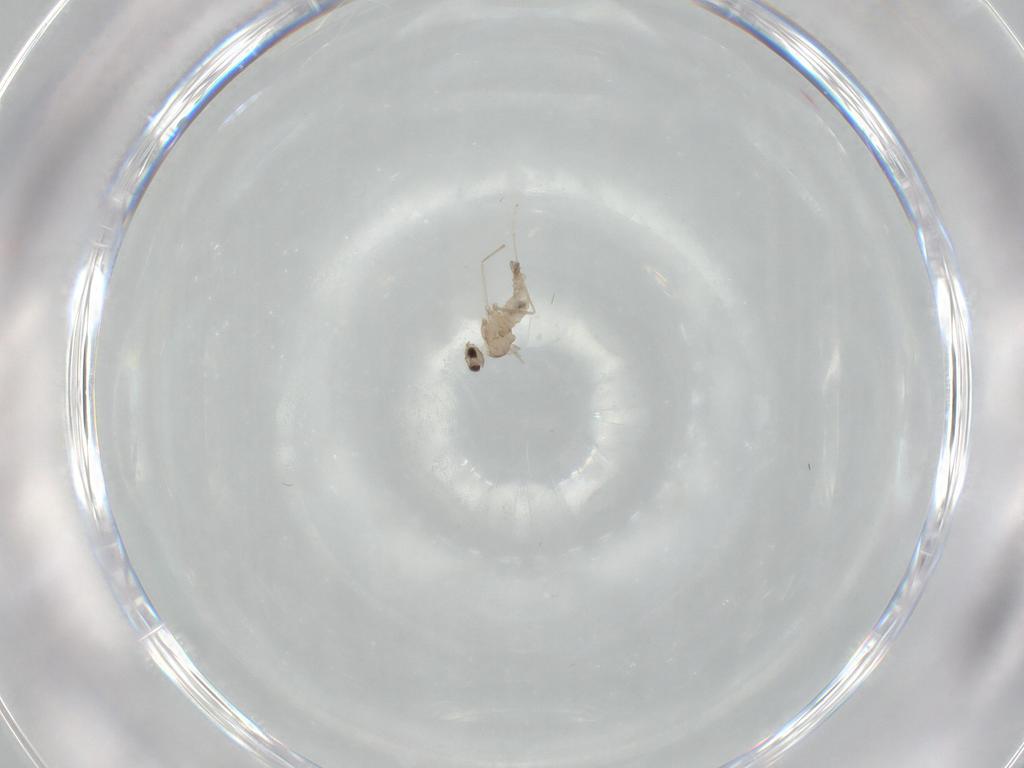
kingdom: Animalia
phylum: Arthropoda
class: Insecta
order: Diptera
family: Cecidomyiidae
